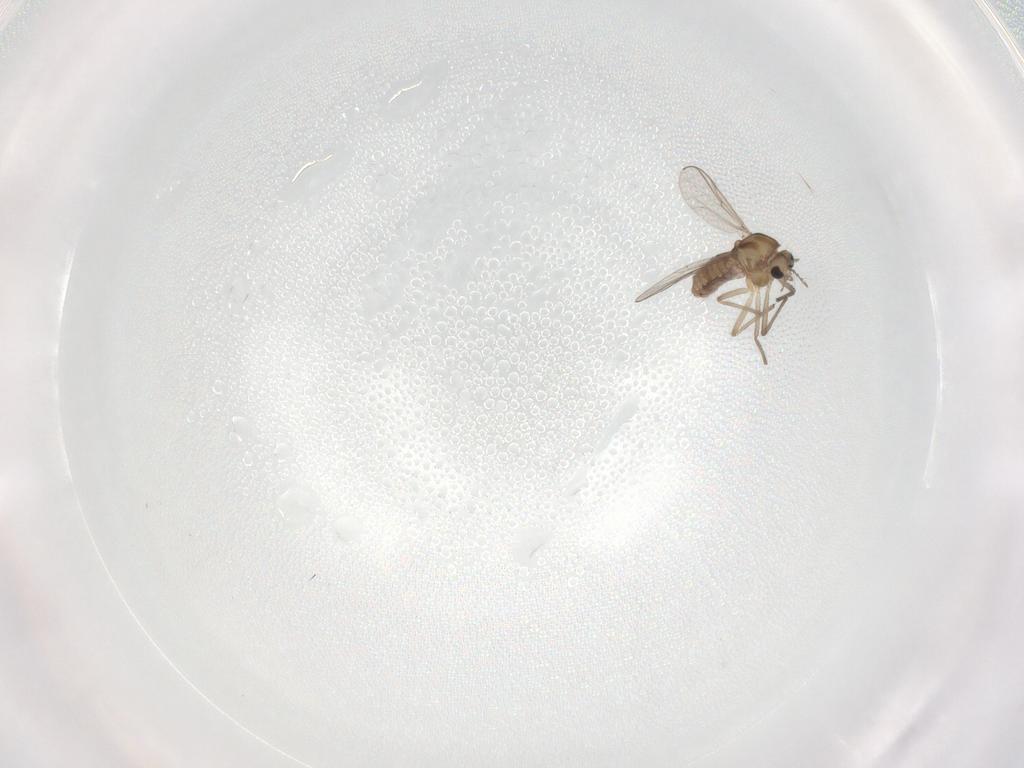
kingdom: Animalia
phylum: Arthropoda
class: Insecta
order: Diptera
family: Chironomidae
